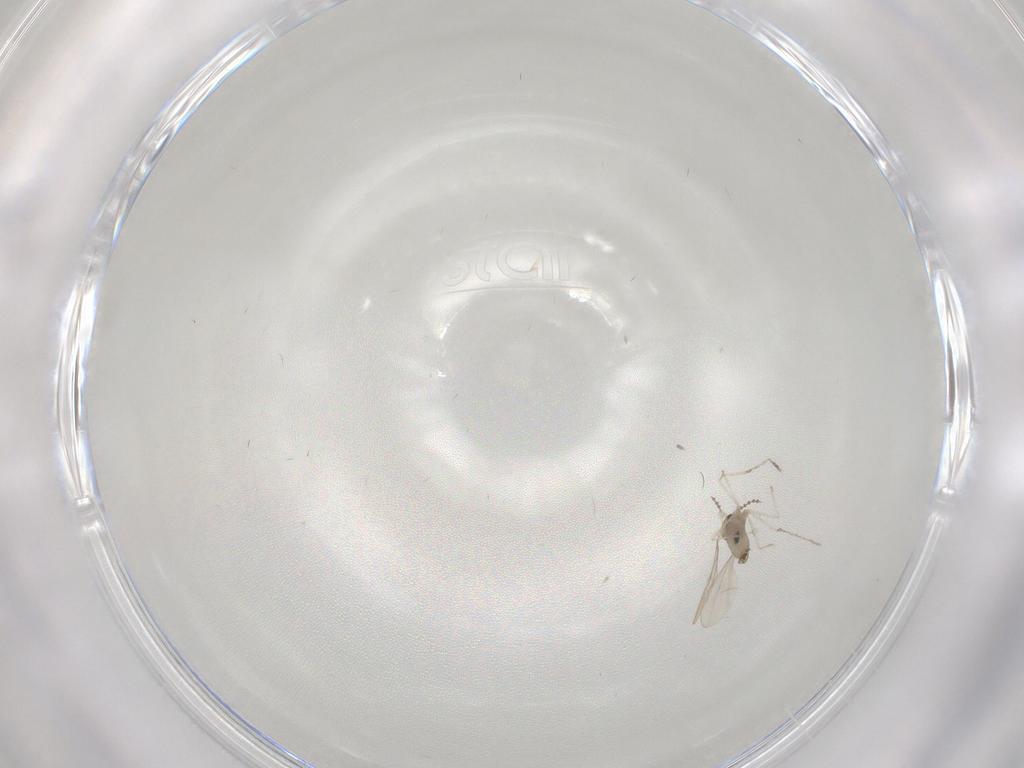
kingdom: Animalia
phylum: Arthropoda
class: Insecta
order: Diptera
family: Cecidomyiidae
